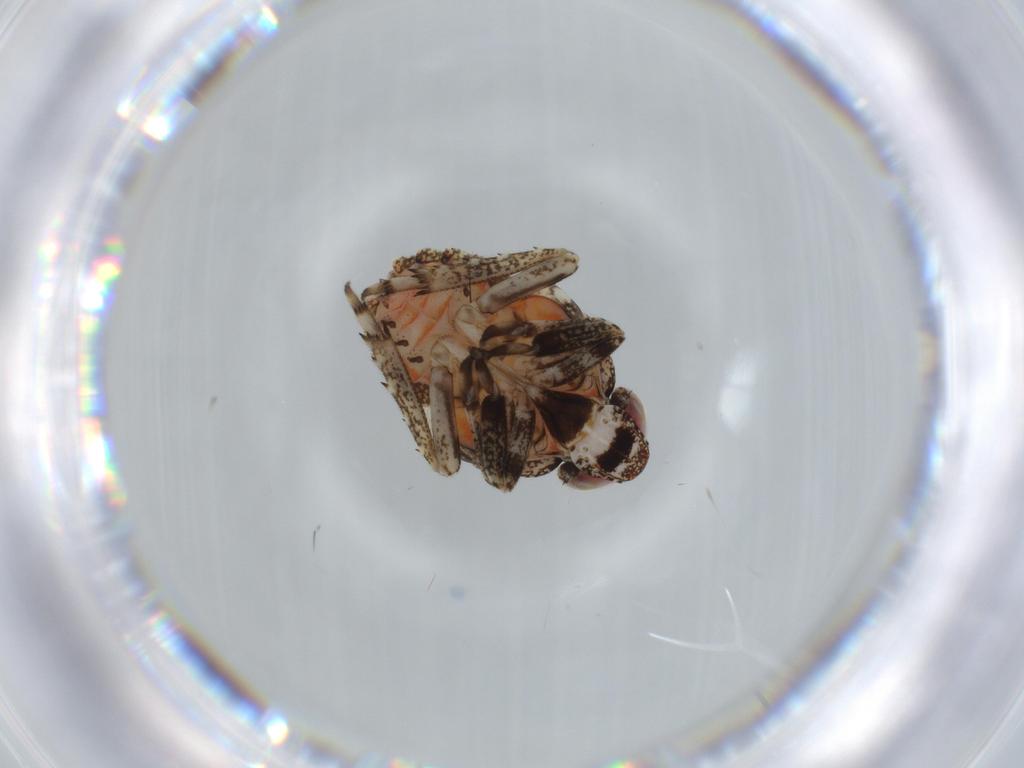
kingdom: Animalia
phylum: Arthropoda
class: Insecta
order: Hemiptera
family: Issidae
